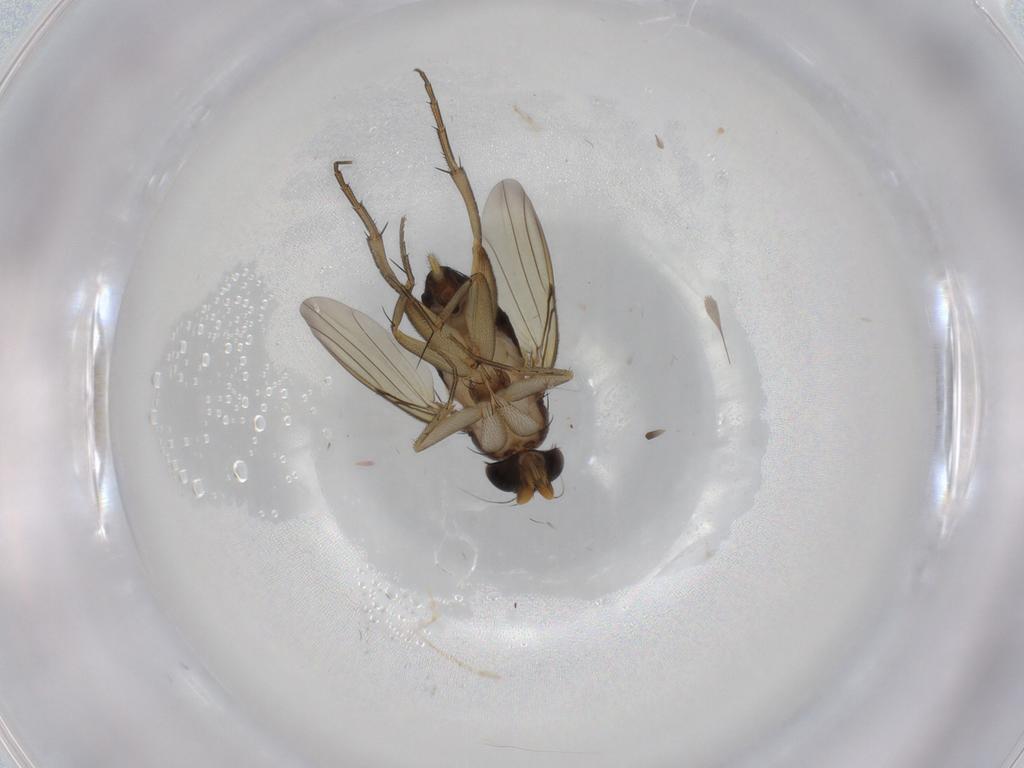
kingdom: Animalia
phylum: Arthropoda
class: Insecta
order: Diptera
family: Phoridae
